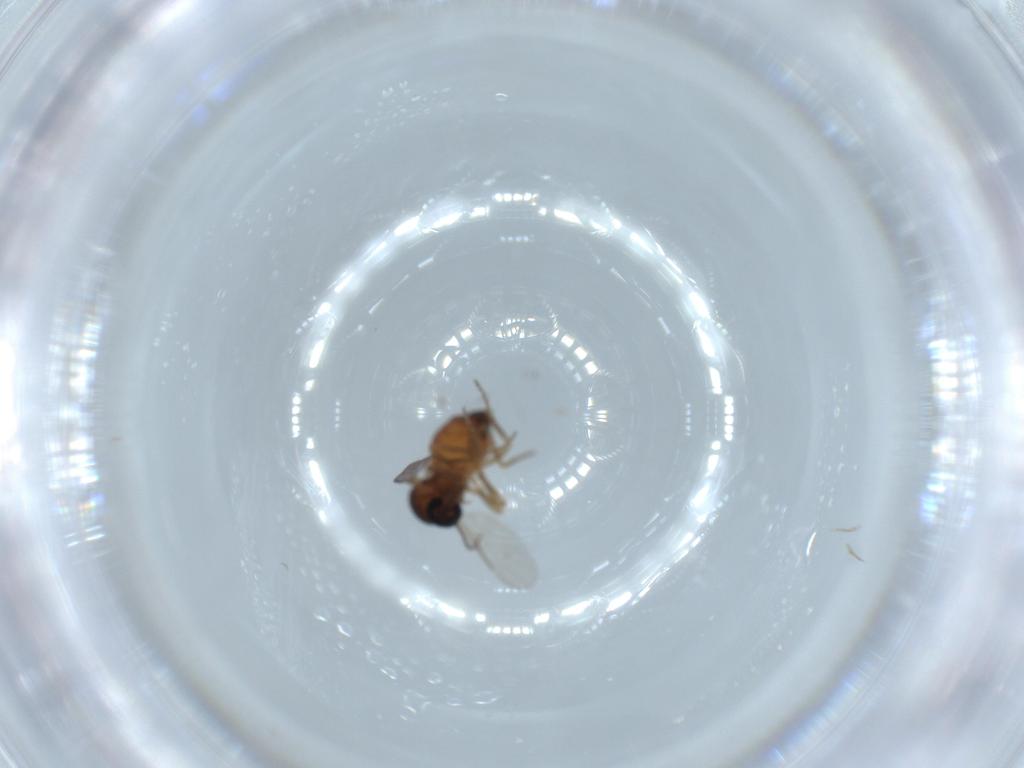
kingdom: Animalia
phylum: Arthropoda
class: Insecta
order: Diptera
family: Ceratopogonidae
